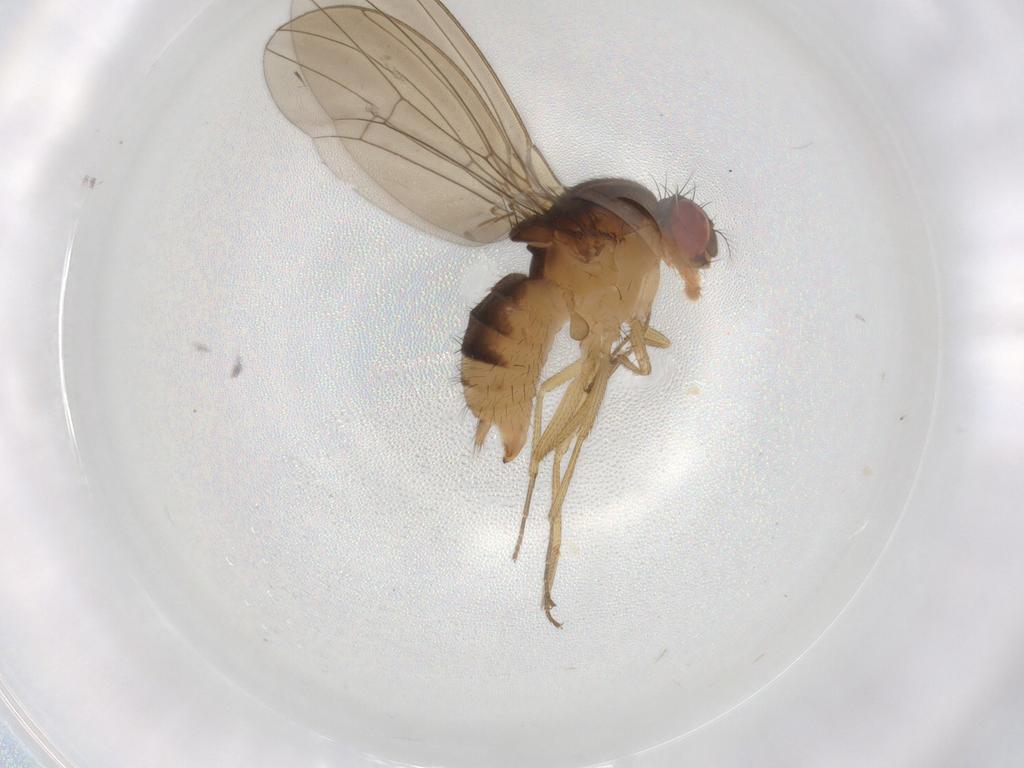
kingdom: Animalia
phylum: Arthropoda
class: Insecta
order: Diptera
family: Drosophilidae
